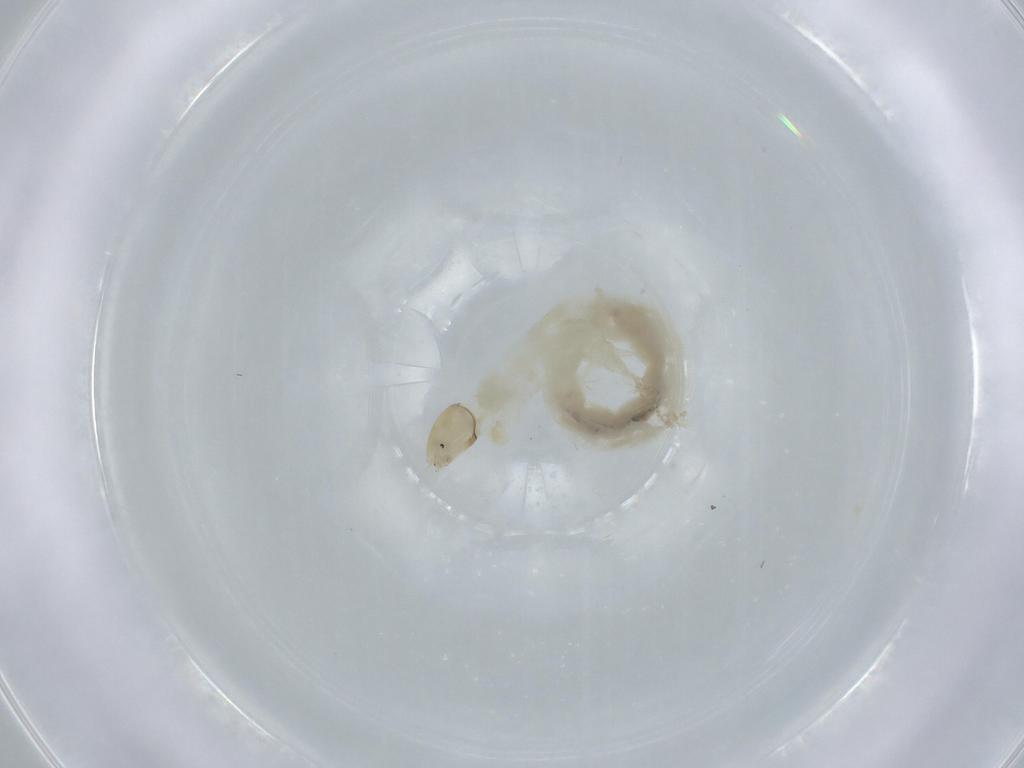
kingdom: Animalia
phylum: Arthropoda
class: Insecta
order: Diptera
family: Chironomidae
